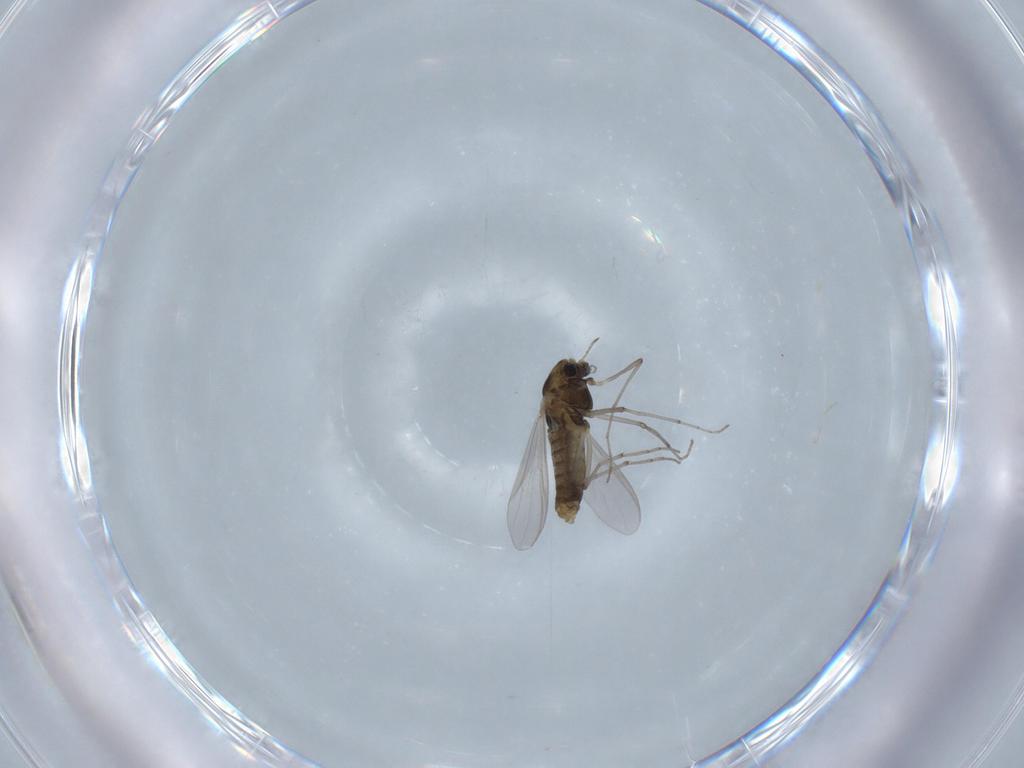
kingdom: Animalia
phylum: Arthropoda
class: Insecta
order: Diptera
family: Chironomidae
